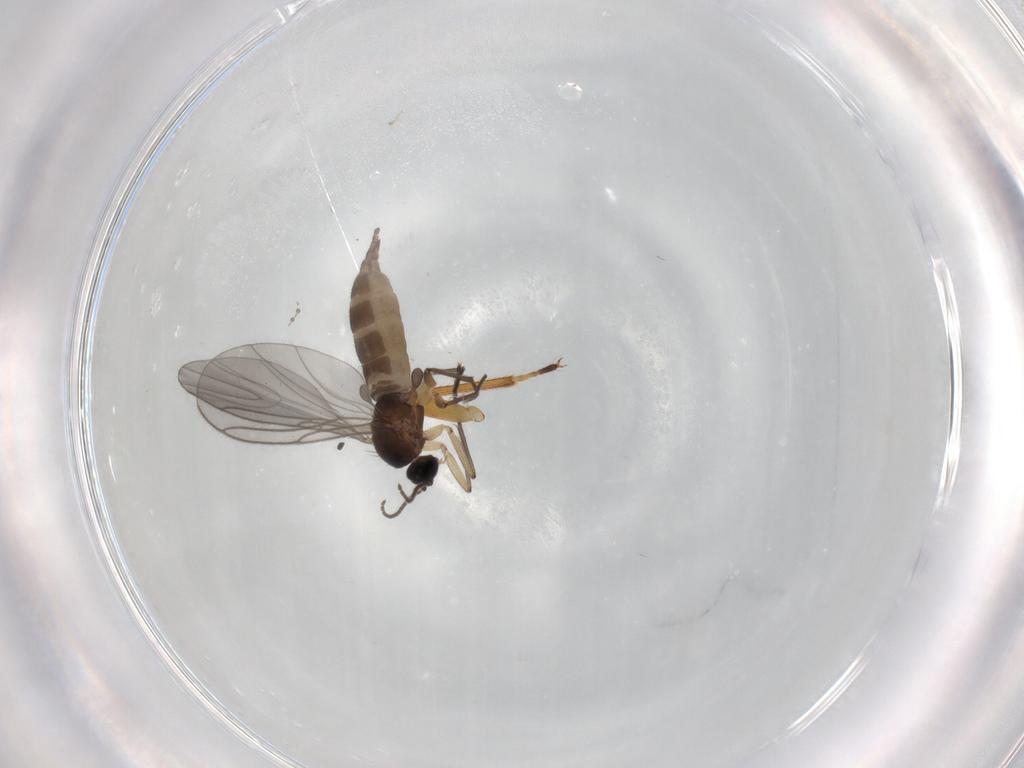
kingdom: Animalia
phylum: Arthropoda
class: Insecta
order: Diptera
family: Sciaridae
